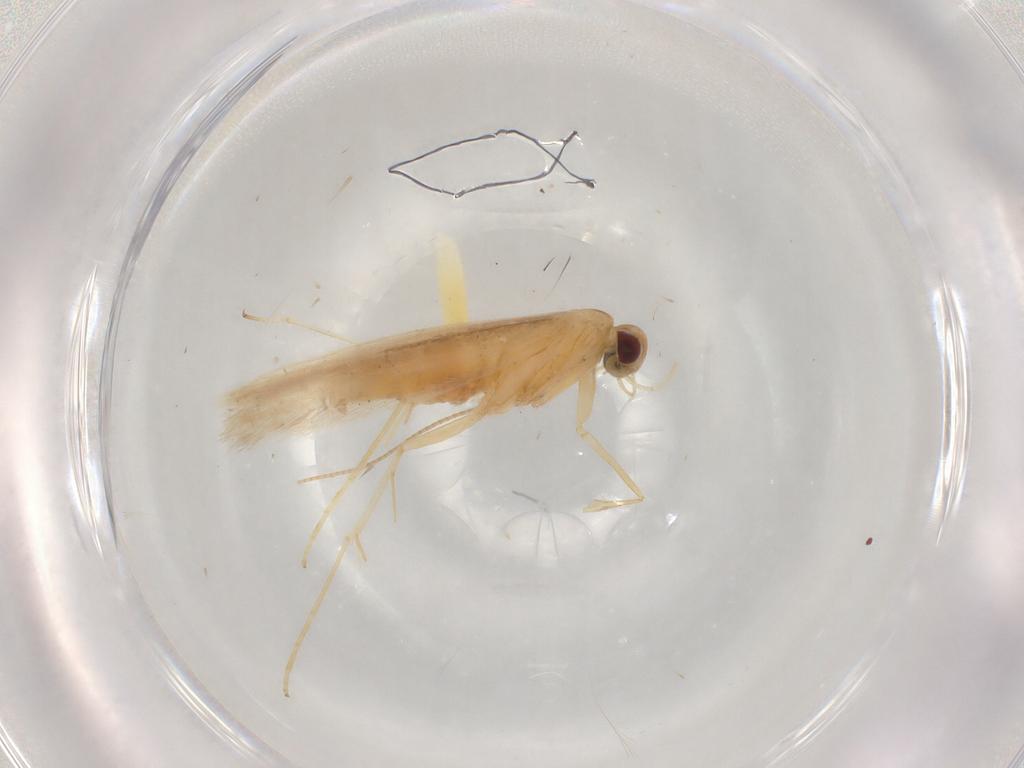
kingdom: Animalia
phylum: Arthropoda
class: Insecta
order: Lepidoptera
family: Gracillariidae
